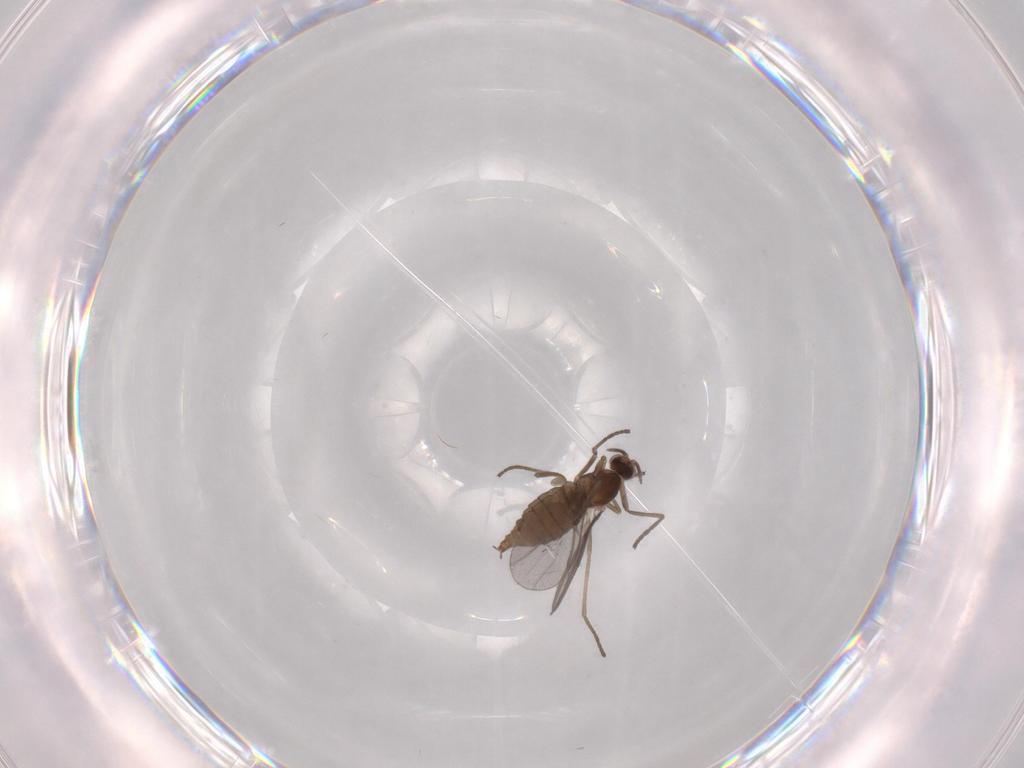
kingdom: Animalia
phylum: Arthropoda
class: Insecta
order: Diptera
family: Cecidomyiidae
